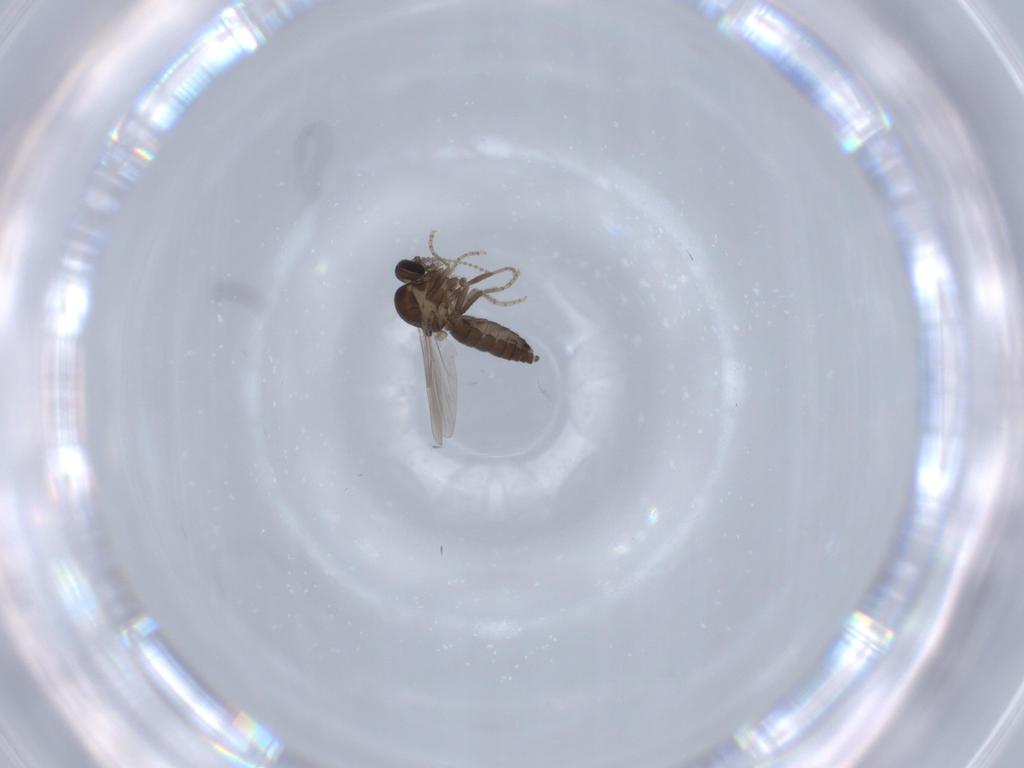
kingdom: Animalia
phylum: Arthropoda
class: Insecta
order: Diptera
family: Ceratopogonidae
